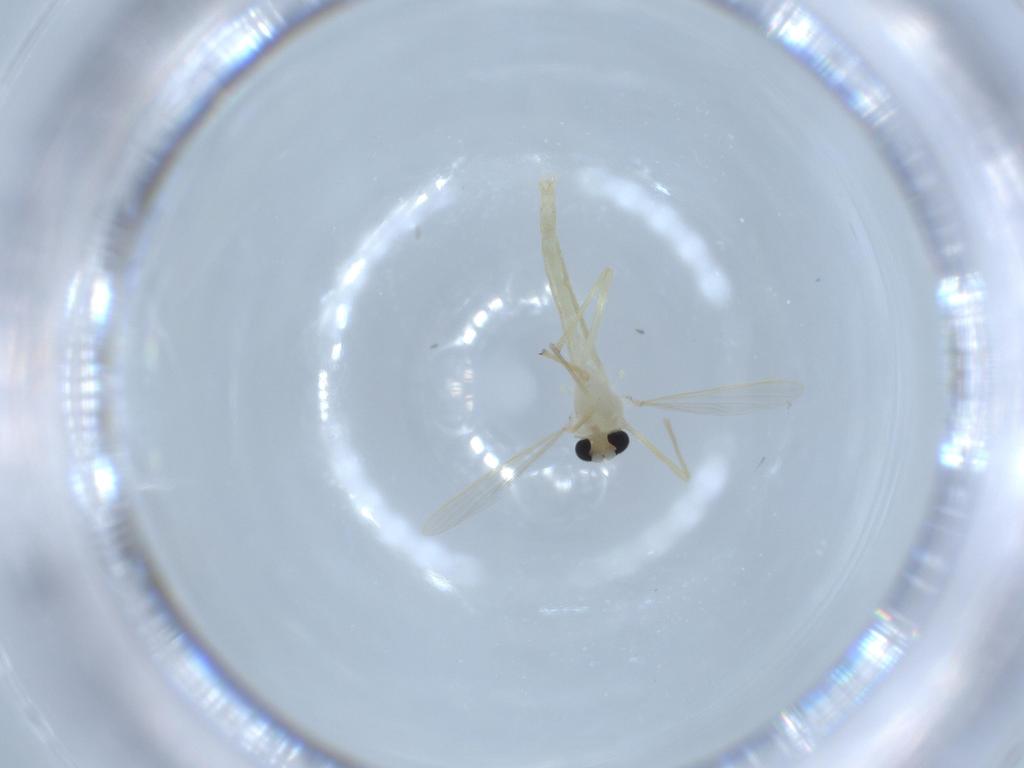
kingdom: Animalia
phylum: Arthropoda
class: Insecta
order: Diptera
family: Chironomidae
